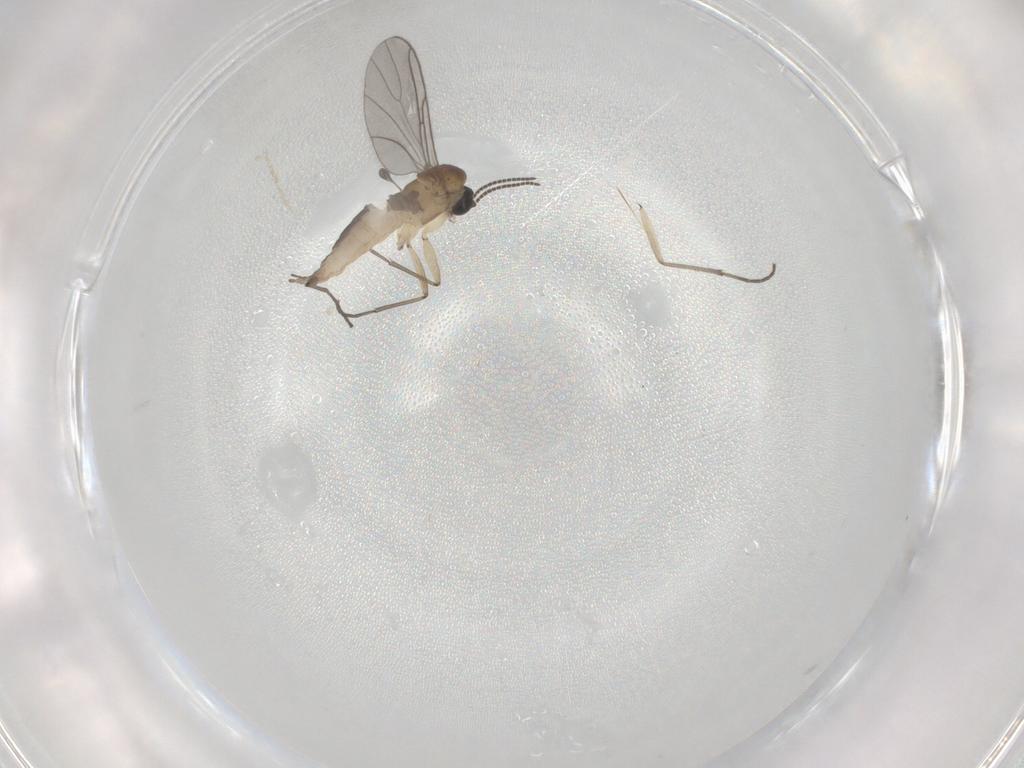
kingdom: Animalia
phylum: Arthropoda
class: Insecta
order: Diptera
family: Sciaridae
